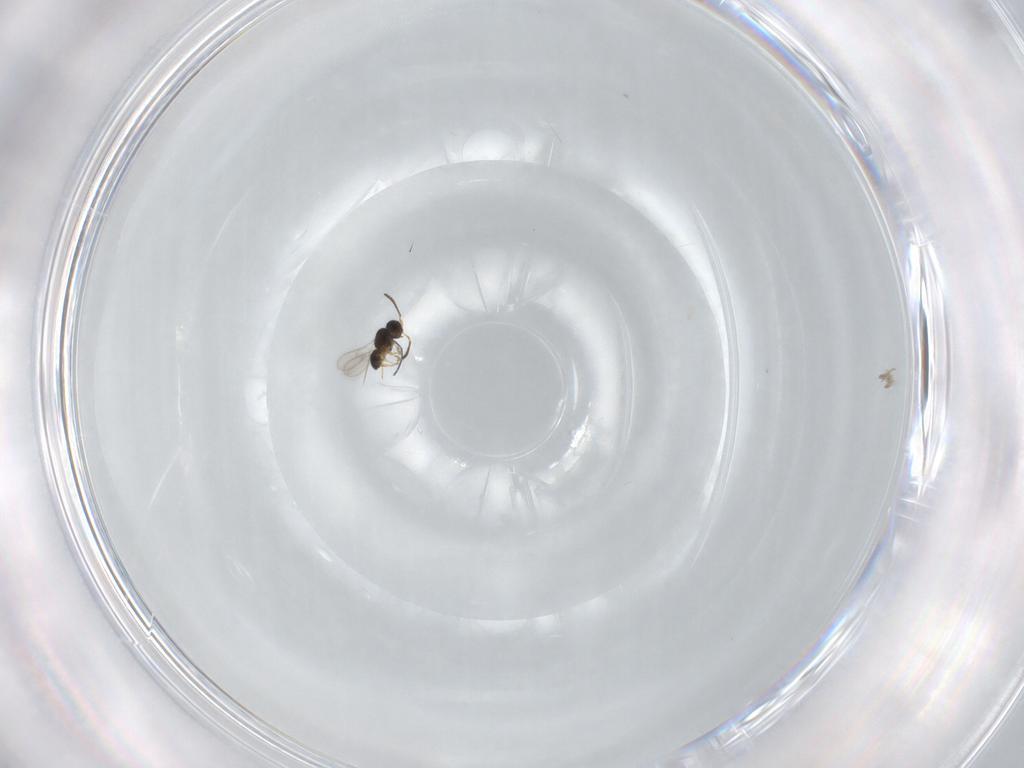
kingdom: Animalia
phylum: Arthropoda
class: Insecta
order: Hymenoptera
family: Scelionidae
